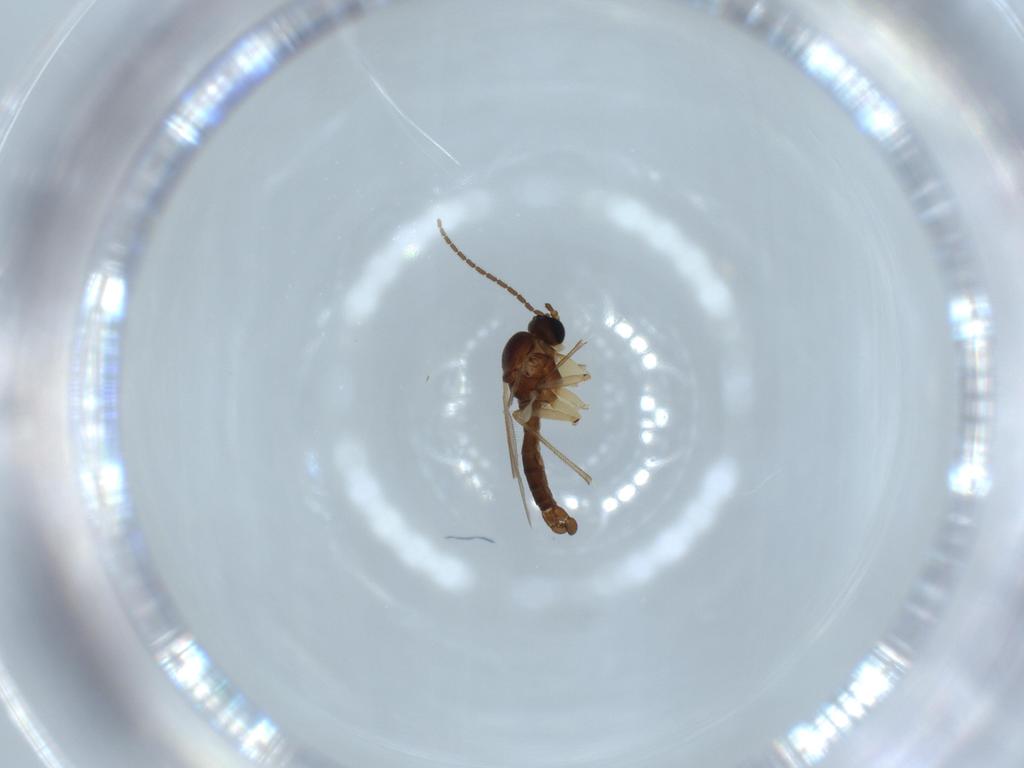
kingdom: Animalia
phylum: Arthropoda
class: Insecta
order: Diptera
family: Sciaridae
